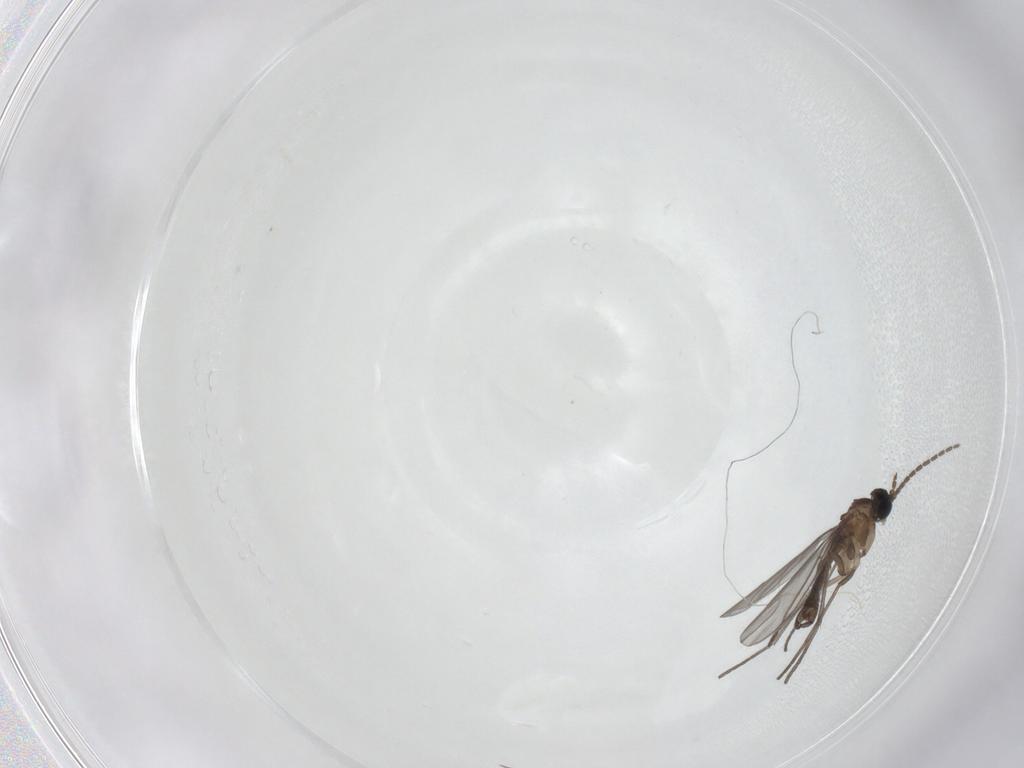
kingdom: Animalia
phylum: Arthropoda
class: Insecta
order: Diptera
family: Sciaridae
